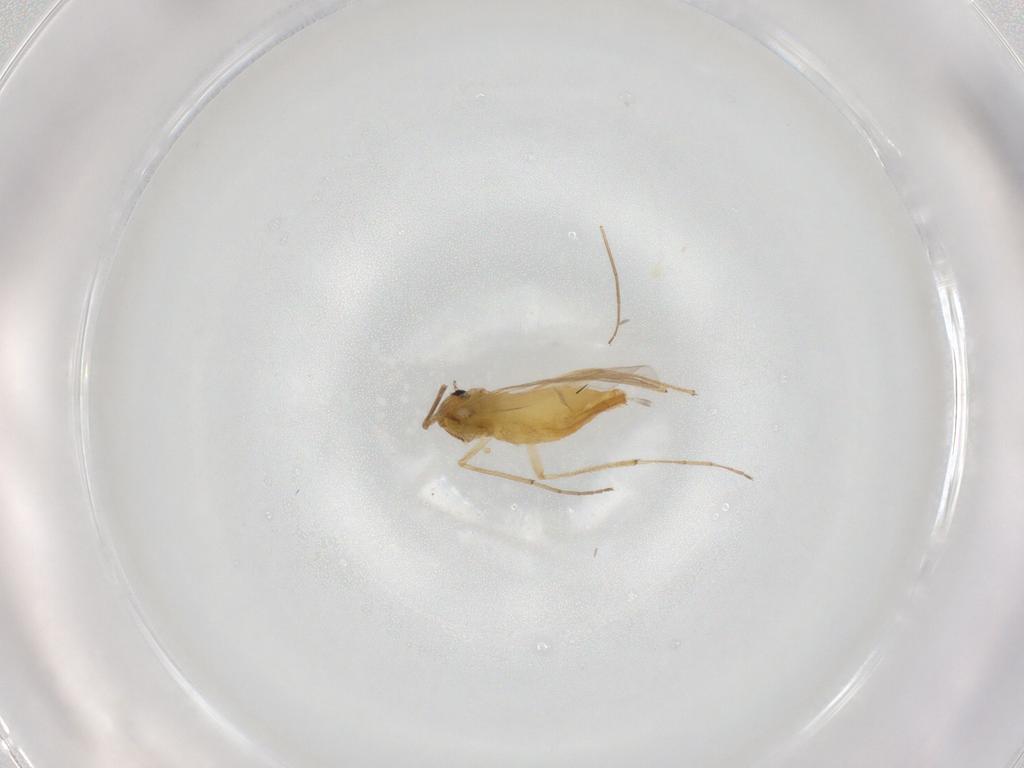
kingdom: Animalia
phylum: Arthropoda
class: Insecta
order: Diptera
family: Chironomidae
